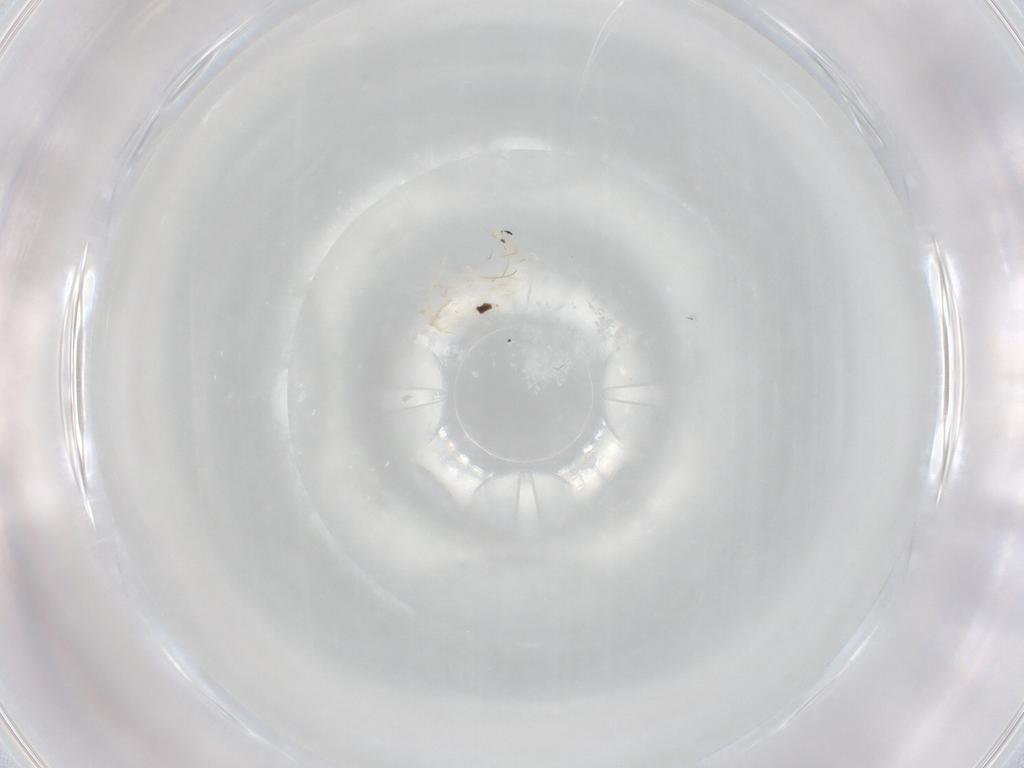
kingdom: Animalia
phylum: Arthropoda
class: Collembola
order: Entomobryomorpha
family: Entomobryidae
